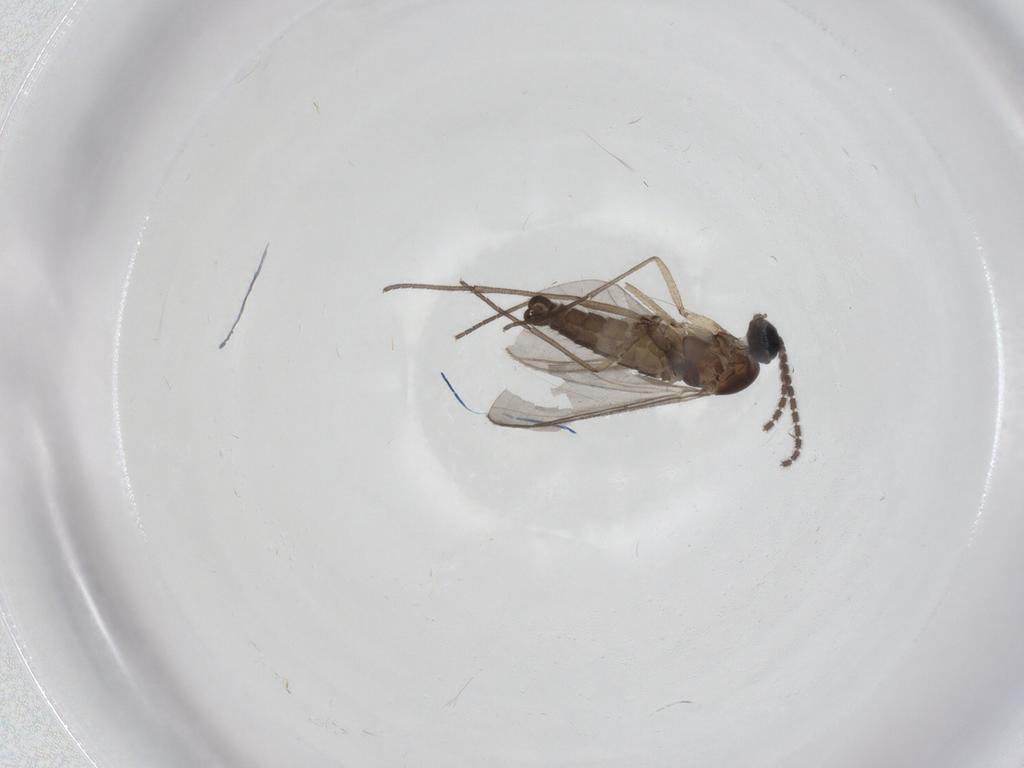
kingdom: Animalia
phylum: Arthropoda
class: Insecta
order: Diptera
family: Sciaridae
